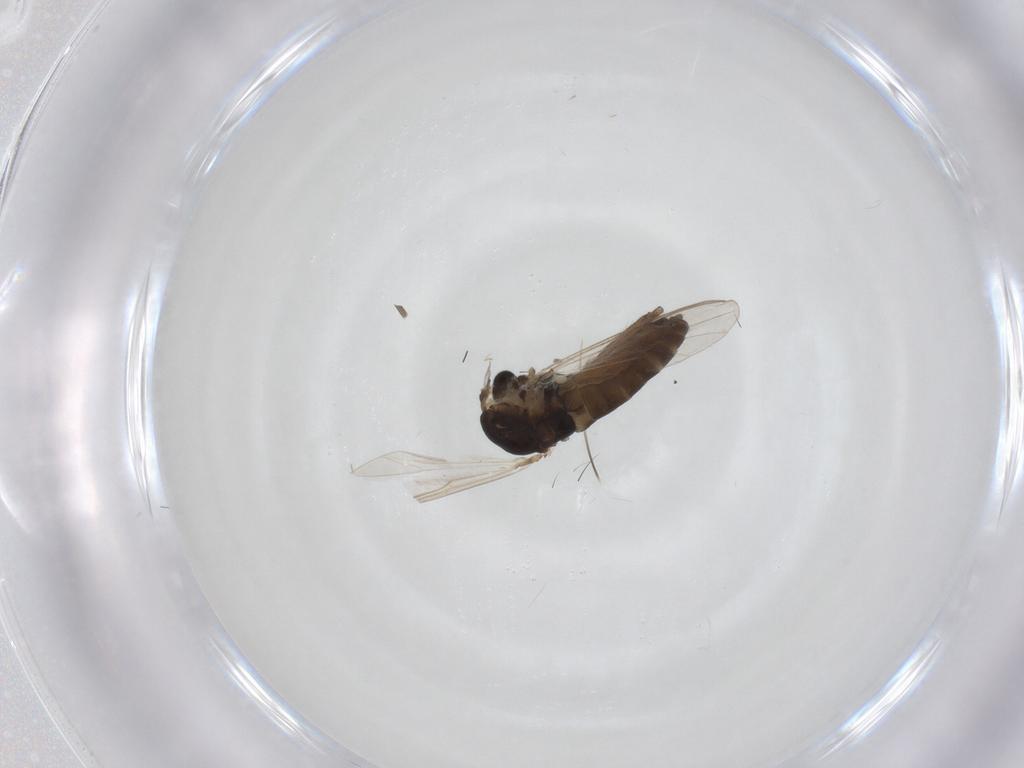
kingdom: Animalia
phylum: Arthropoda
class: Insecta
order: Diptera
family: Chironomidae
